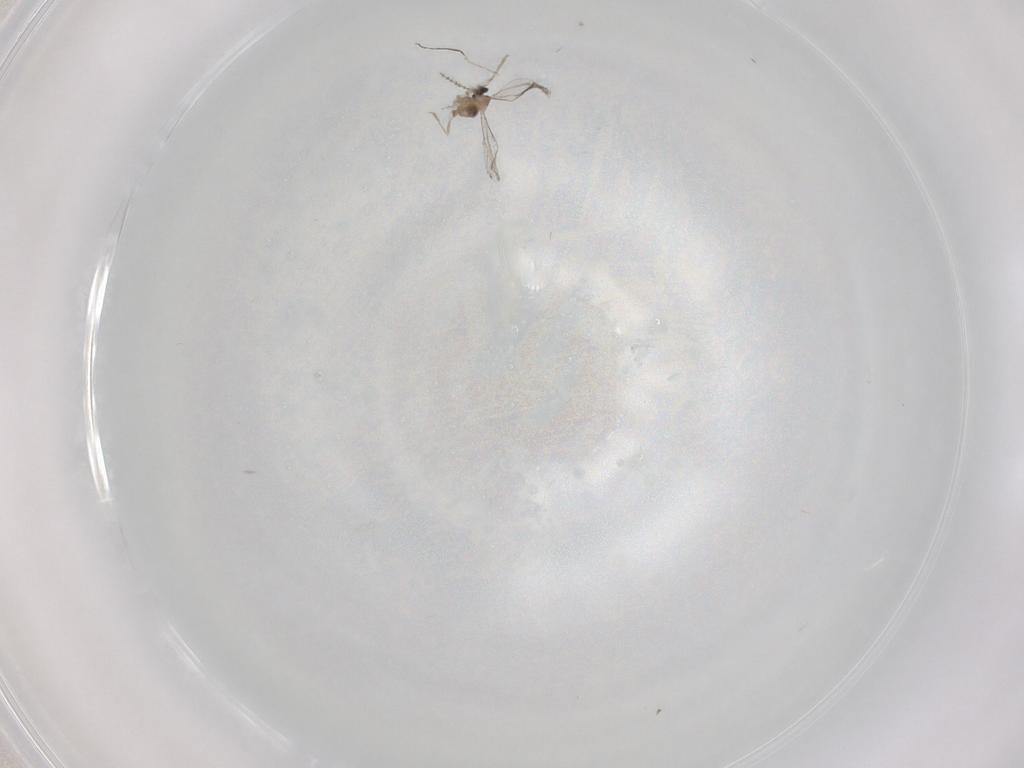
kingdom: Animalia
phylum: Arthropoda
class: Insecta
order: Diptera
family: Cecidomyiidae
